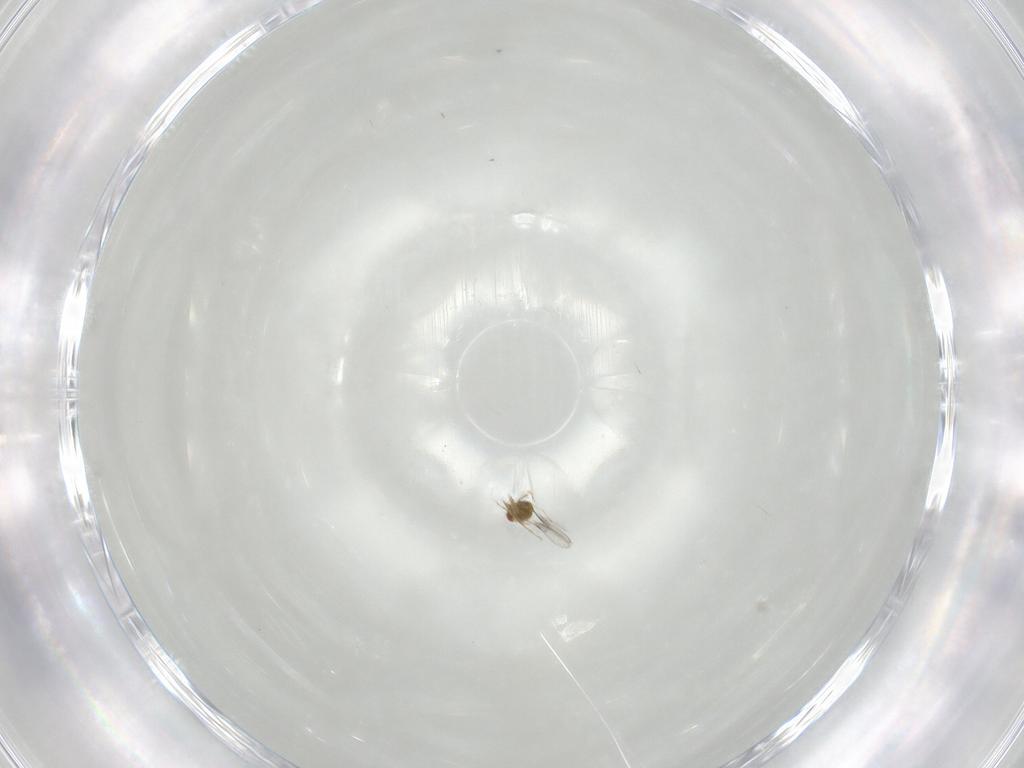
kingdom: Animalia
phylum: Arthropoda
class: Insecta
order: Hymenoptera
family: Trichogrammatidae
